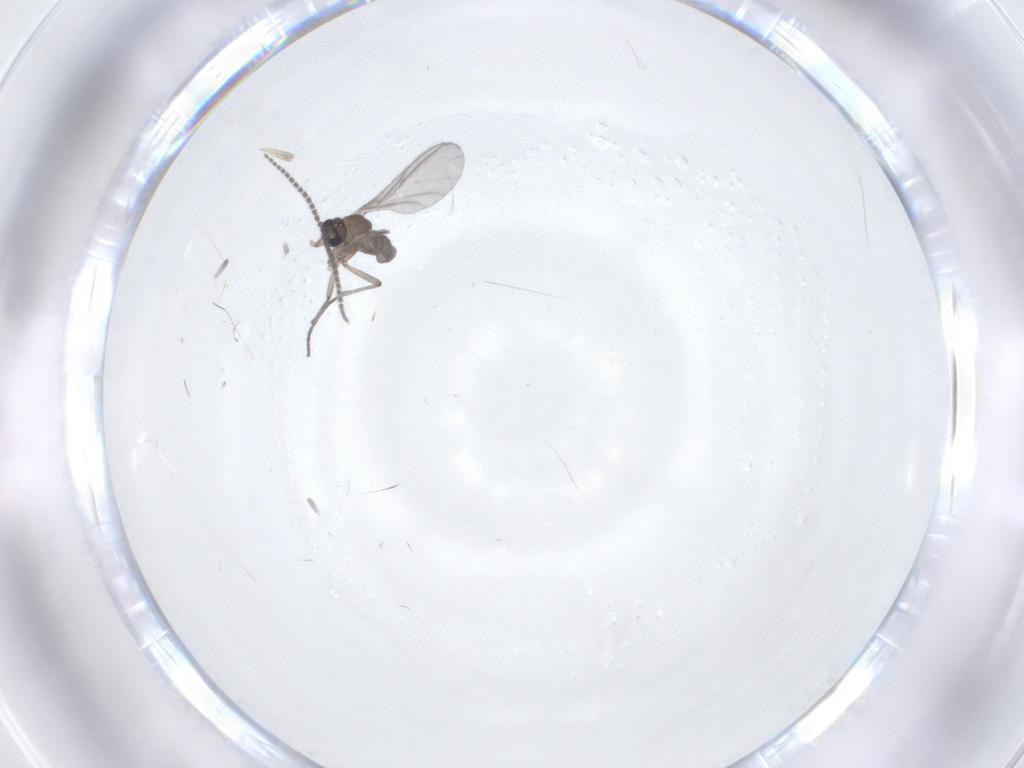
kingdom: Animalia
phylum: Arthropoda
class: Insecta
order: Diptera
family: Sciaridae
